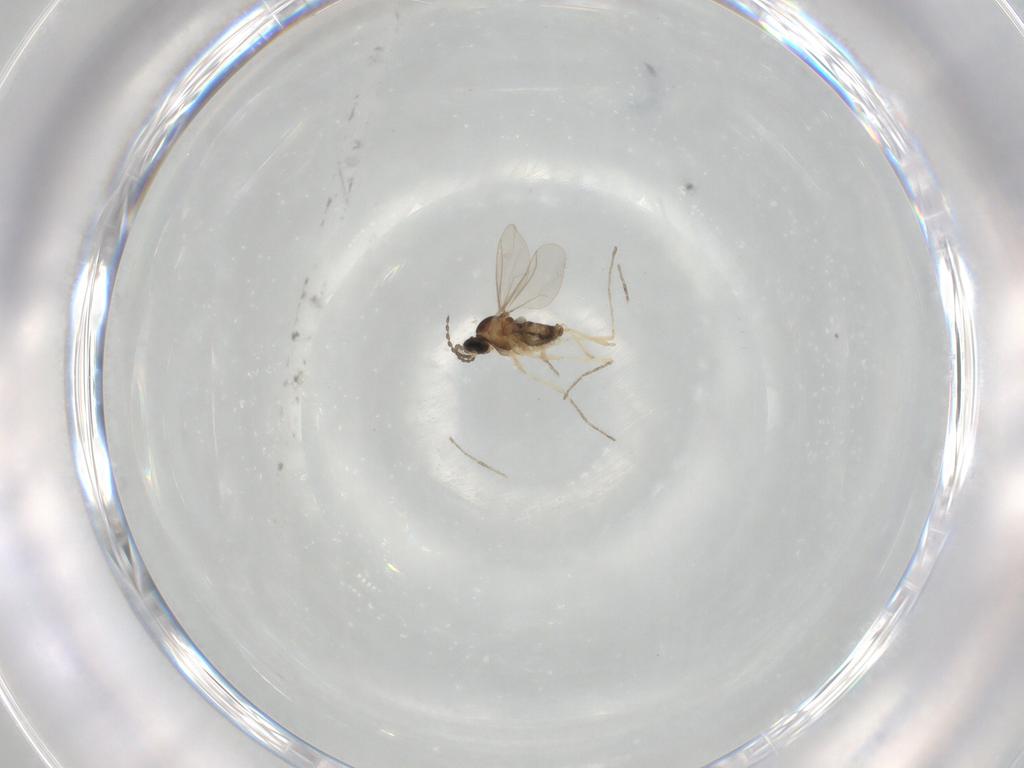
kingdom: Animalia
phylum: Arthropoda
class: Insecta
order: Diptera
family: Cecidomyiidae
